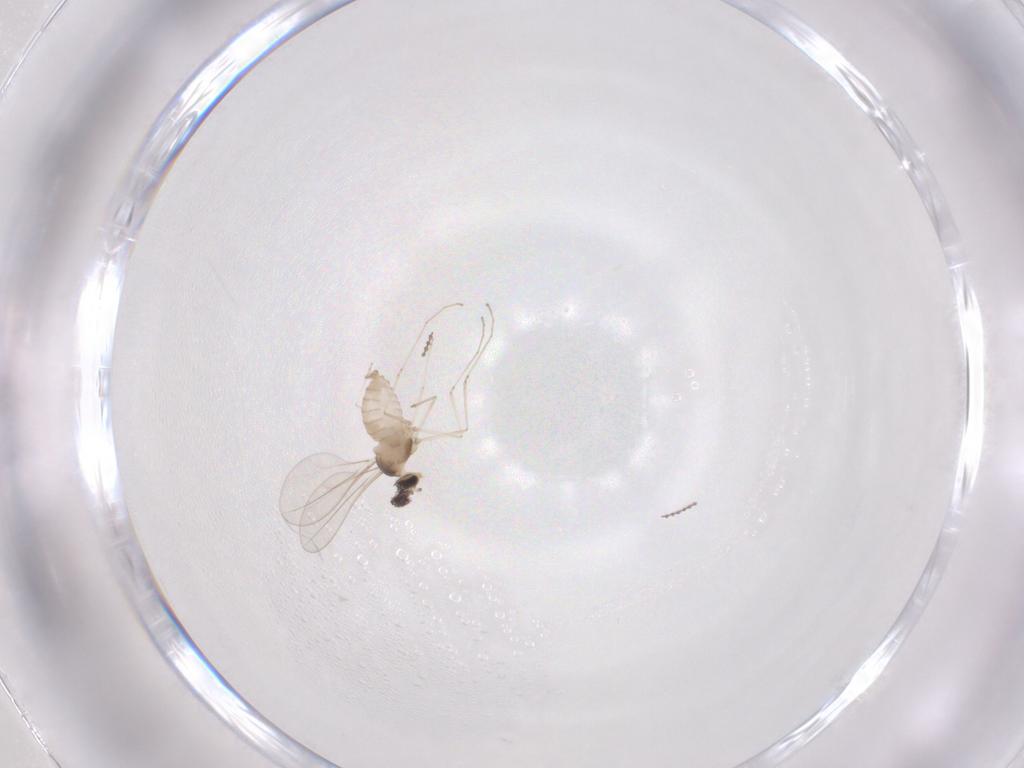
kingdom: Animalia
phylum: Arthropoda
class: Insecta
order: Diptera
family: Cecidomyiidae
